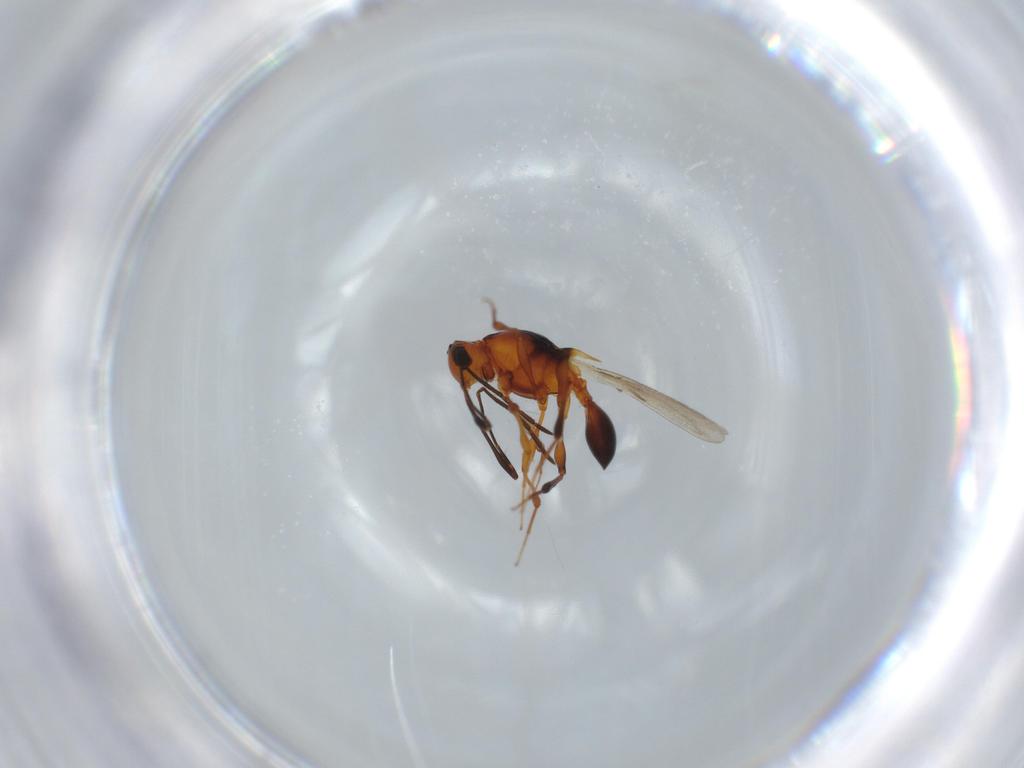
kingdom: Animalia
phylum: Arthropoda
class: Insecta
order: Hymenoptera
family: Platygastridae
